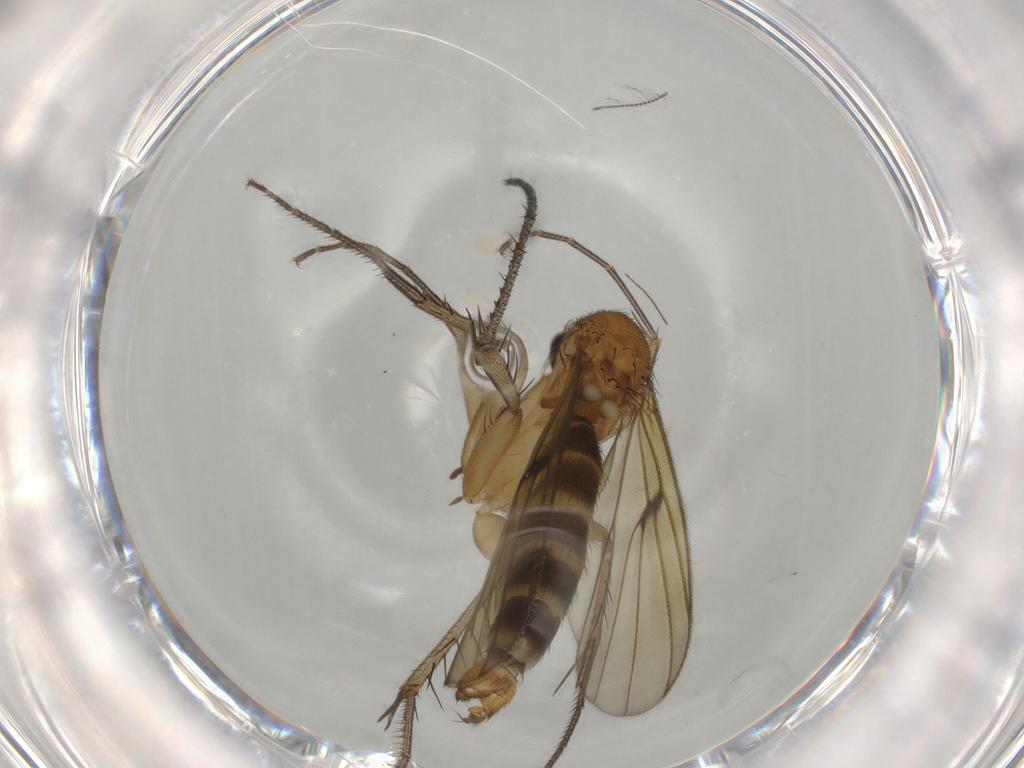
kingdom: Animalia
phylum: Arthropoda
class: Insecta
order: Diptera
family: Mycetophilidae
